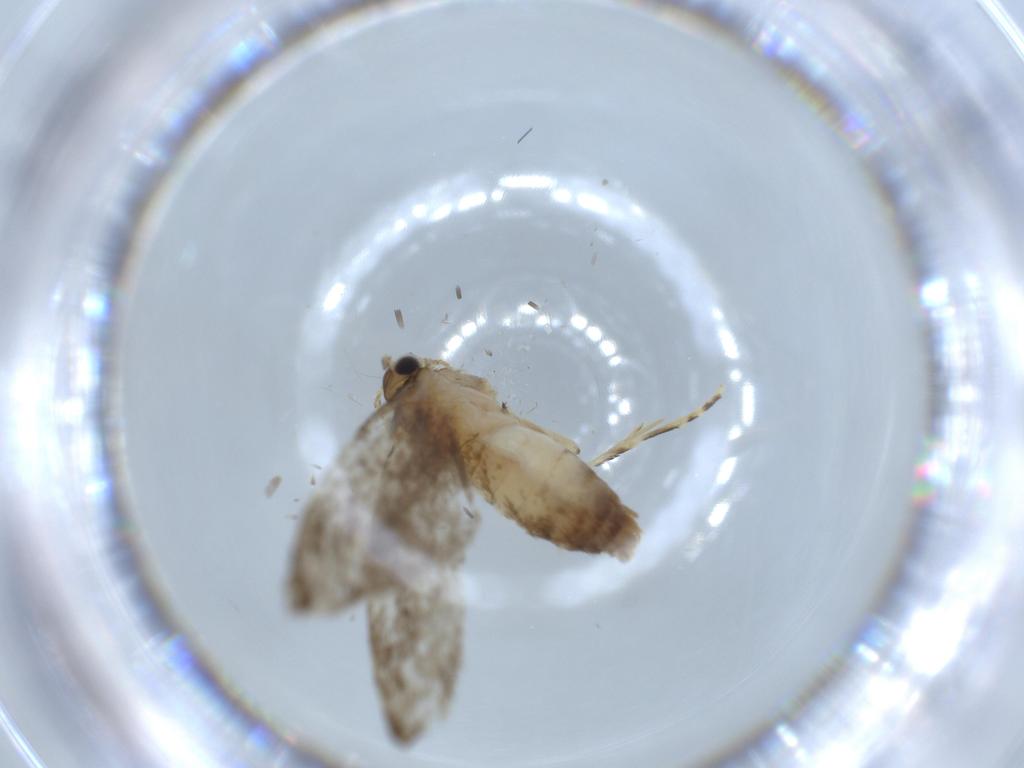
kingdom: Animalia
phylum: Arthropoda
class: Insecta
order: Lepidoptera
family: Tineidae
